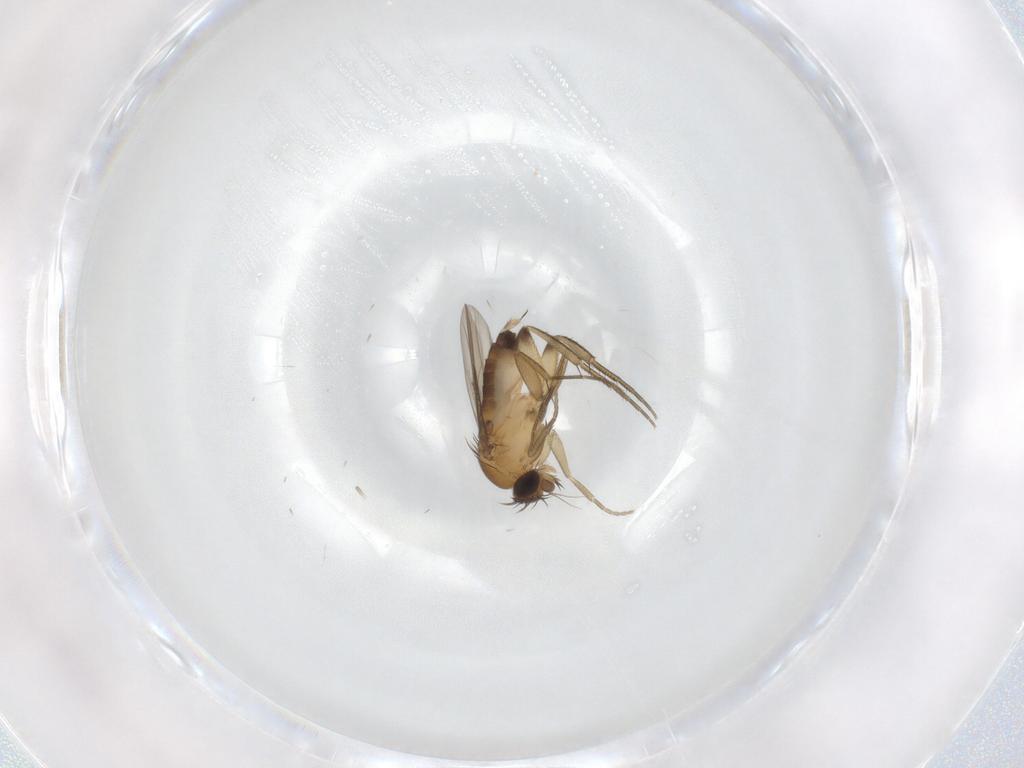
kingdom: Animalia
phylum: Arthropoda
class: Insecta
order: Diptera
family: Phoridae
